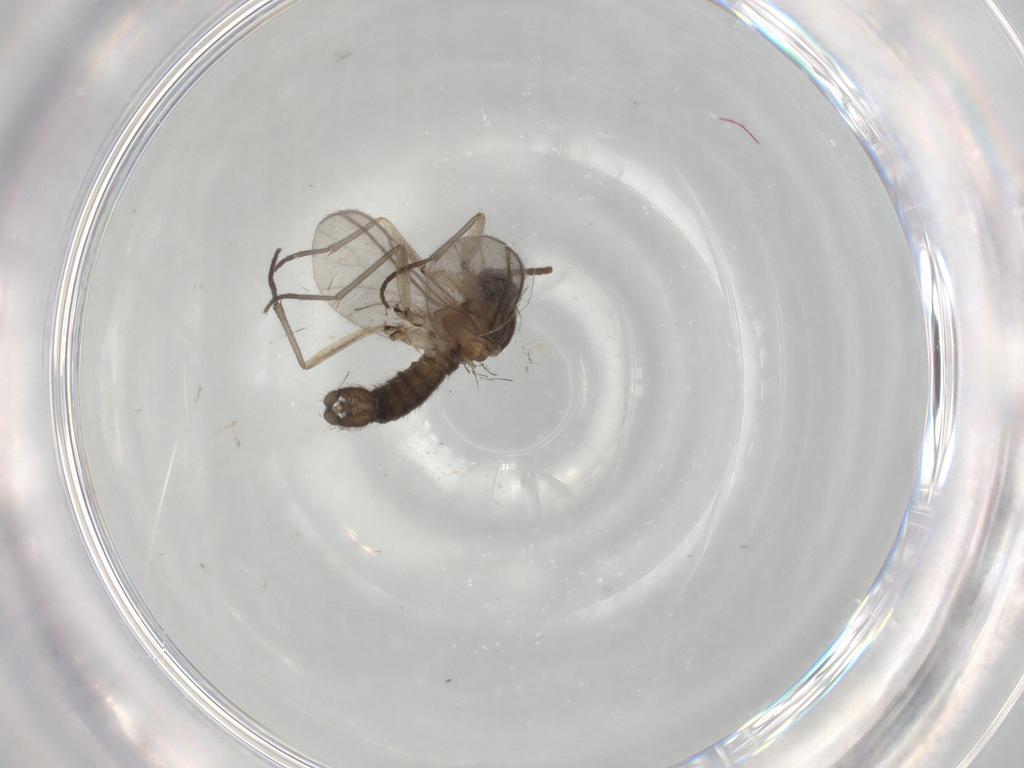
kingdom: Animalia
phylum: Arthropoda
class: Insecta
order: Diptera
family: Sciaridae
